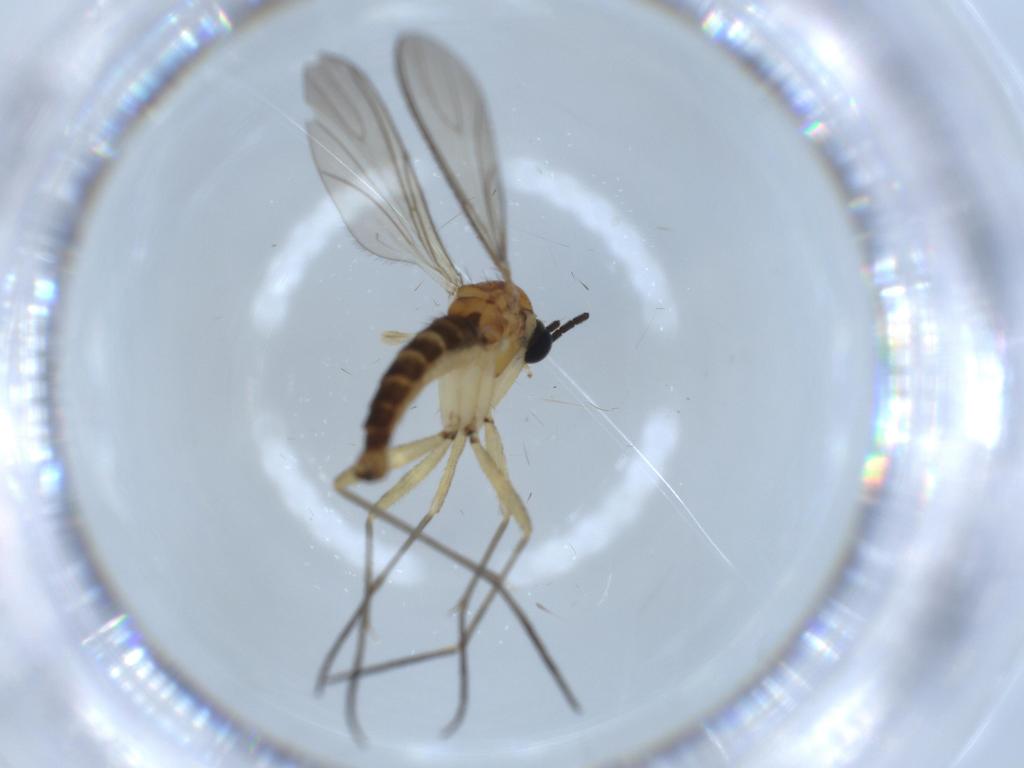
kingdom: Animalia
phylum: Arthropoda
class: Insecta
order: Diptera
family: Sciaridae
